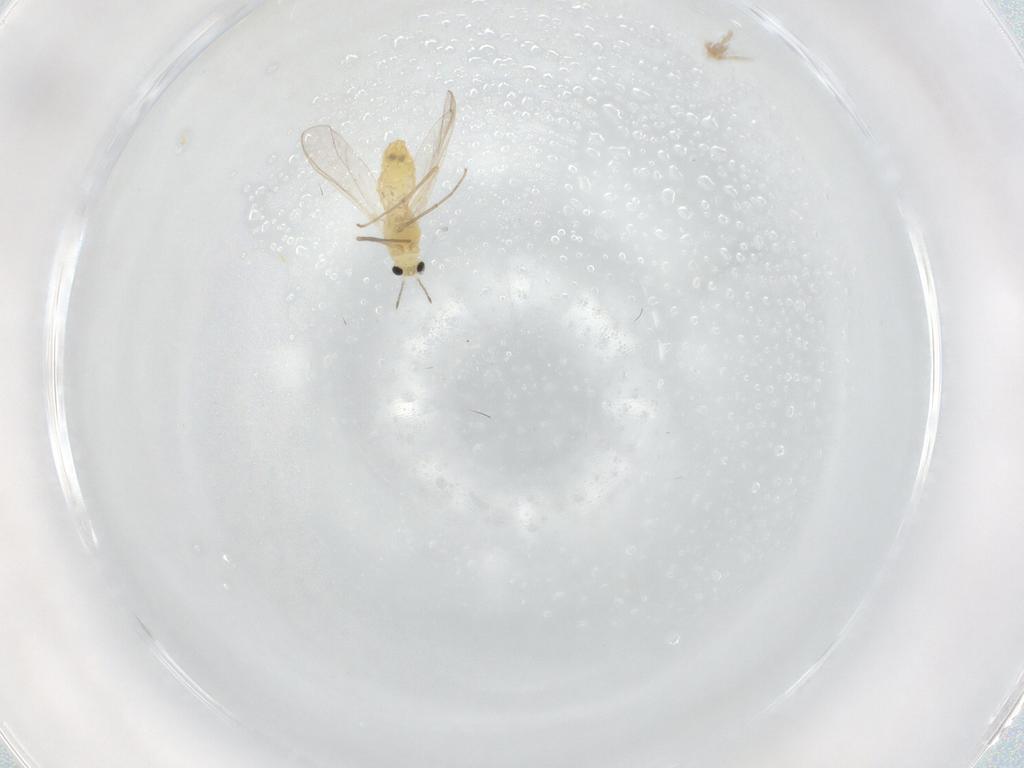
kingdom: Animalia
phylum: Arthropoda
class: Insecta
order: Diptera
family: Chironomidae
